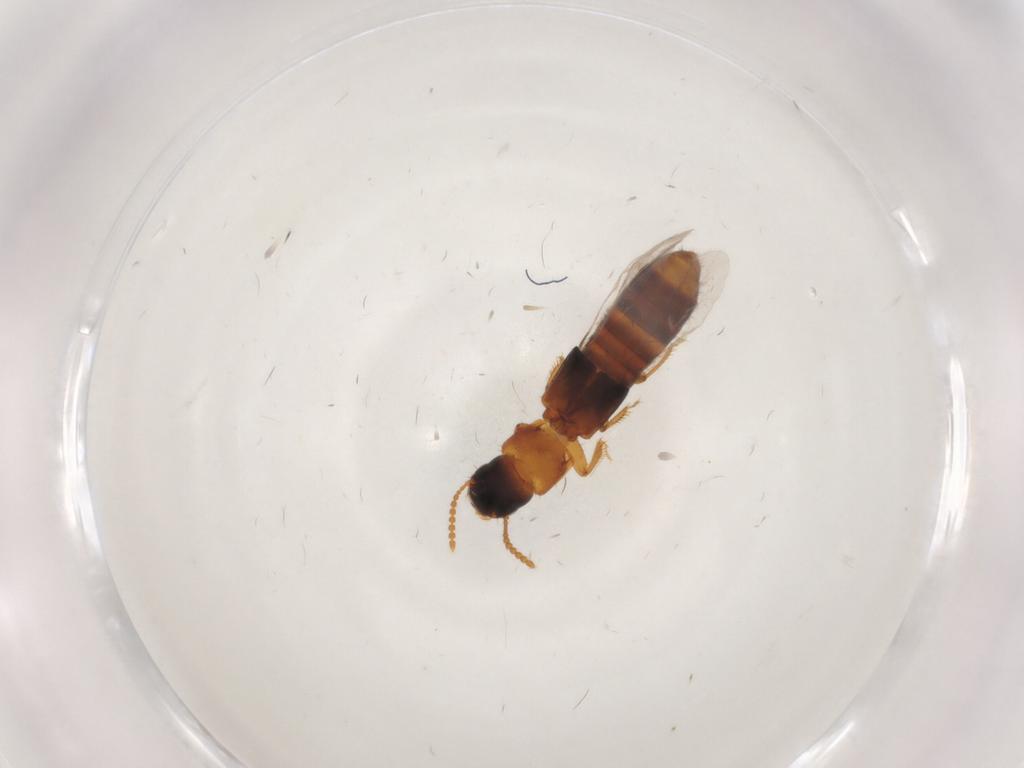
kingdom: Animalia
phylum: Arthropoda
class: Insecta
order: Coleoptera
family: Staphylinidae
